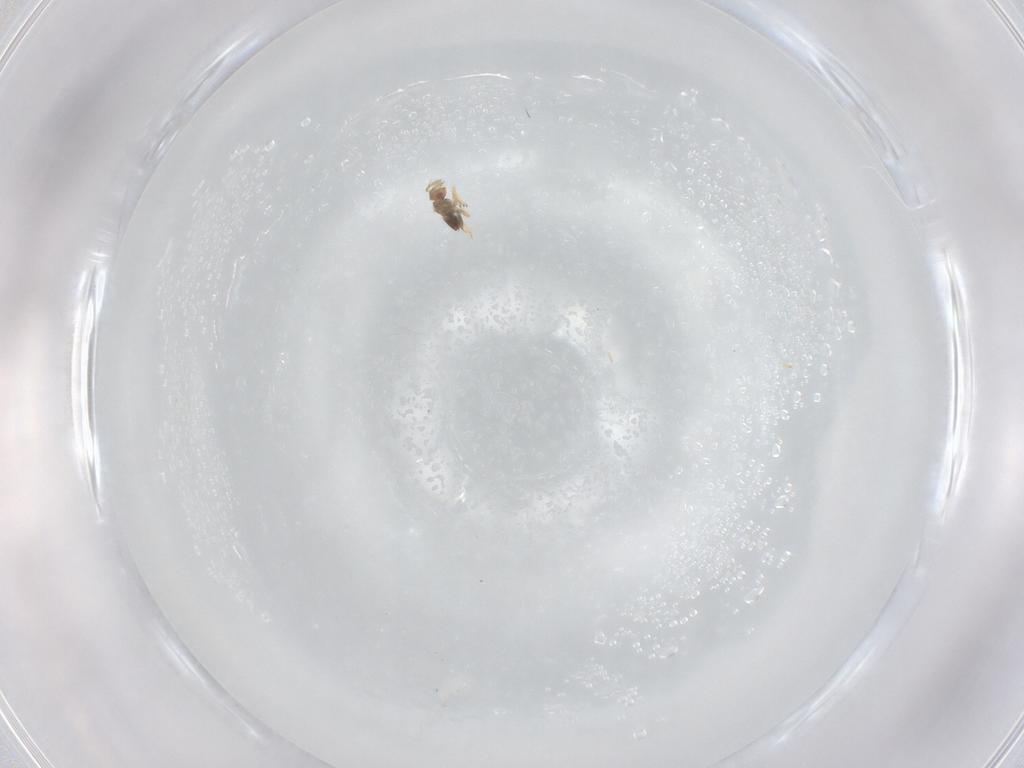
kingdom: Animalia
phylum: Arthropoda
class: Insecta
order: Hymenoptera
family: Trichogrammatidae
